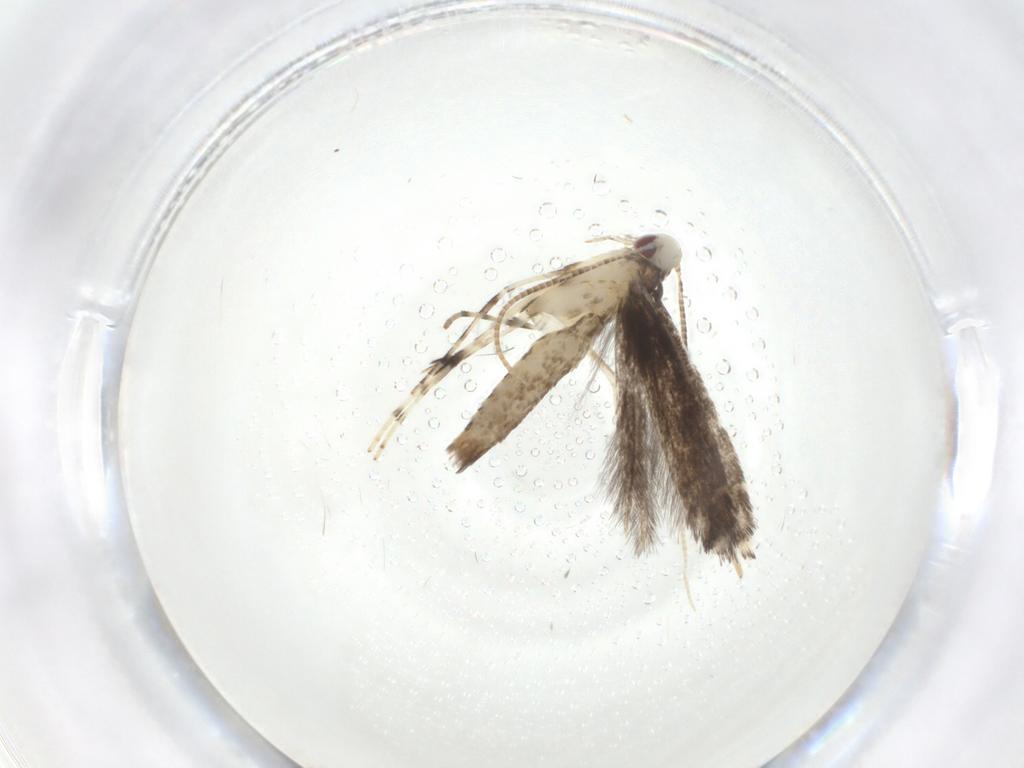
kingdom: Animalia
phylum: Arthropoda
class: Insecta
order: Lepidoptera
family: Gracillariidae
